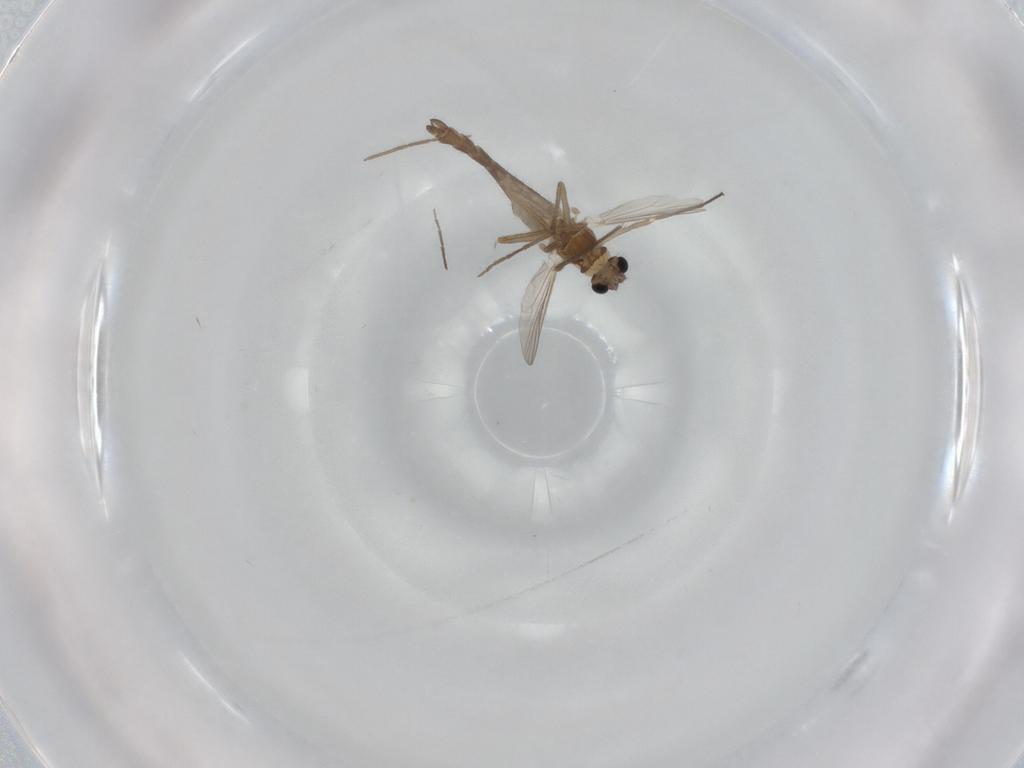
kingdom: Animalia
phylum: Arthropoda
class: Insecta
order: Diptera
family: Chironomidae
